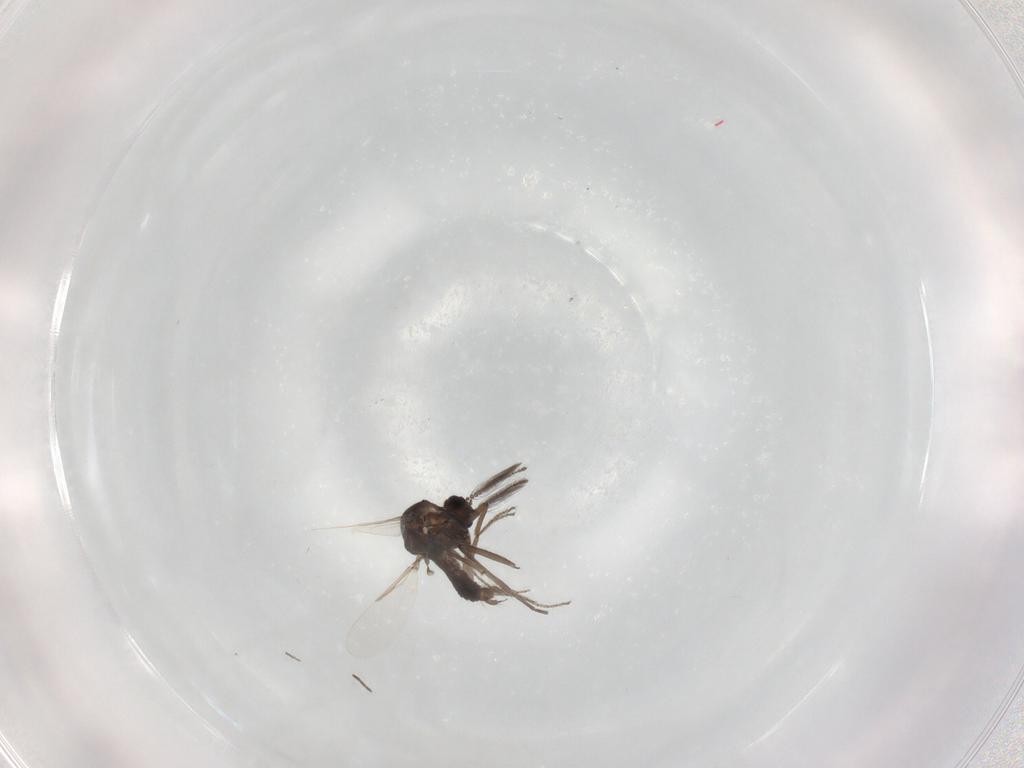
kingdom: Animalia
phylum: Arthropoda
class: Insecta
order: Diptera
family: Ceratopogonidae
